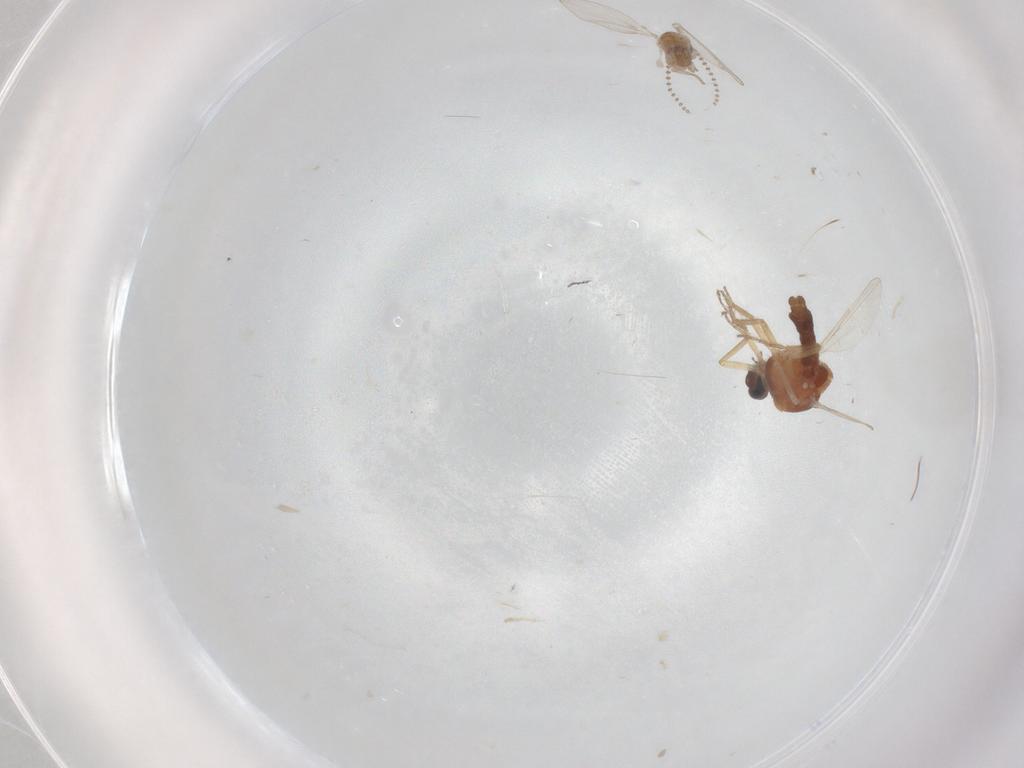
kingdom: Animalia
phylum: Arthropoda
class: Insecta
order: Diptera
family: Ceratopogonidae
